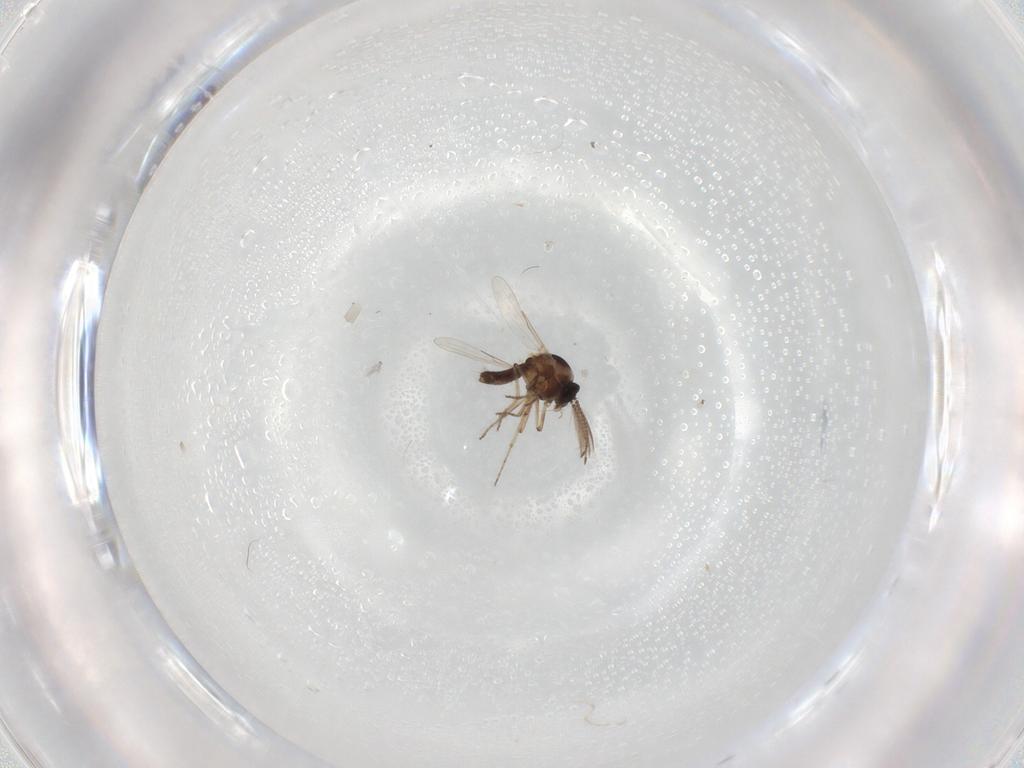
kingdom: Animalia
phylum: Arthropoda
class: Insecta
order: Diptera
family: Ceratopogonidae
